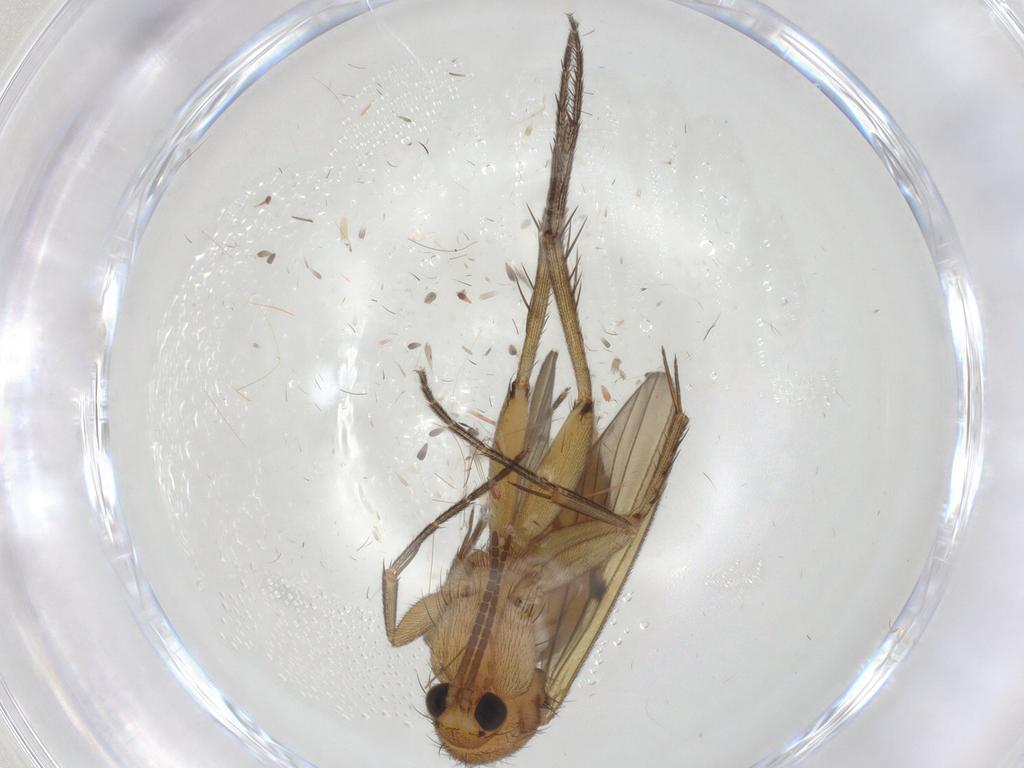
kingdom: Animalia
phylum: Arthropoda
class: Insecta
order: Diptera
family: Mycetophilidae
